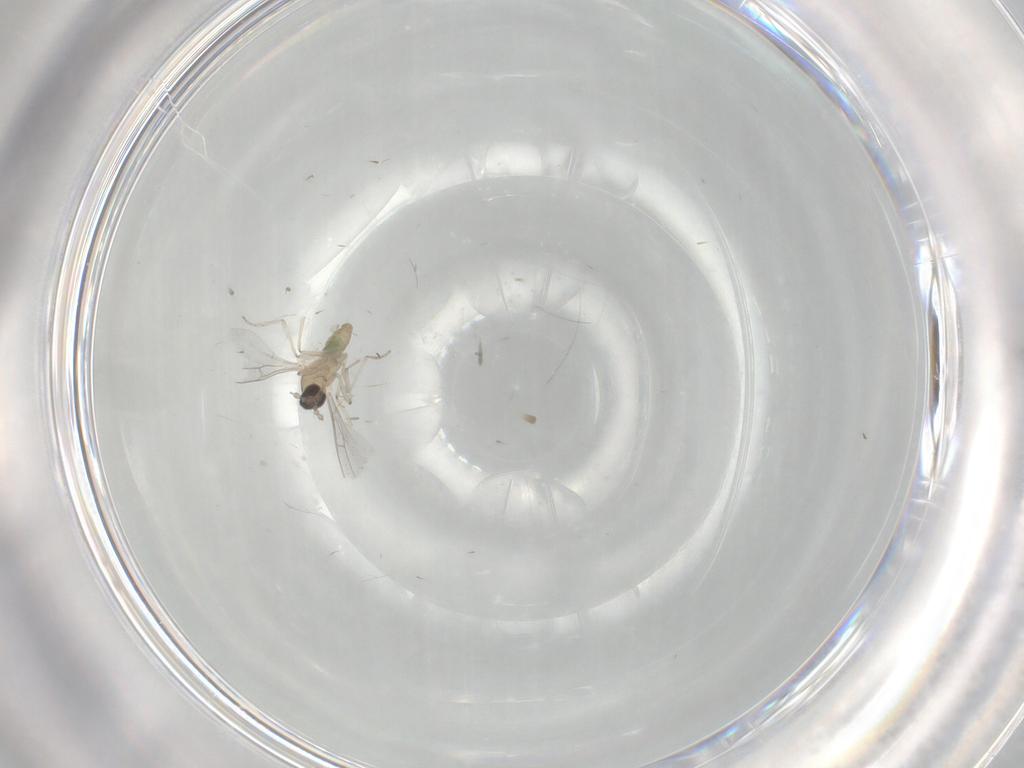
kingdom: Animalia
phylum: Arthropoda
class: Insecta
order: Diptera
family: Cecidomyiidae
